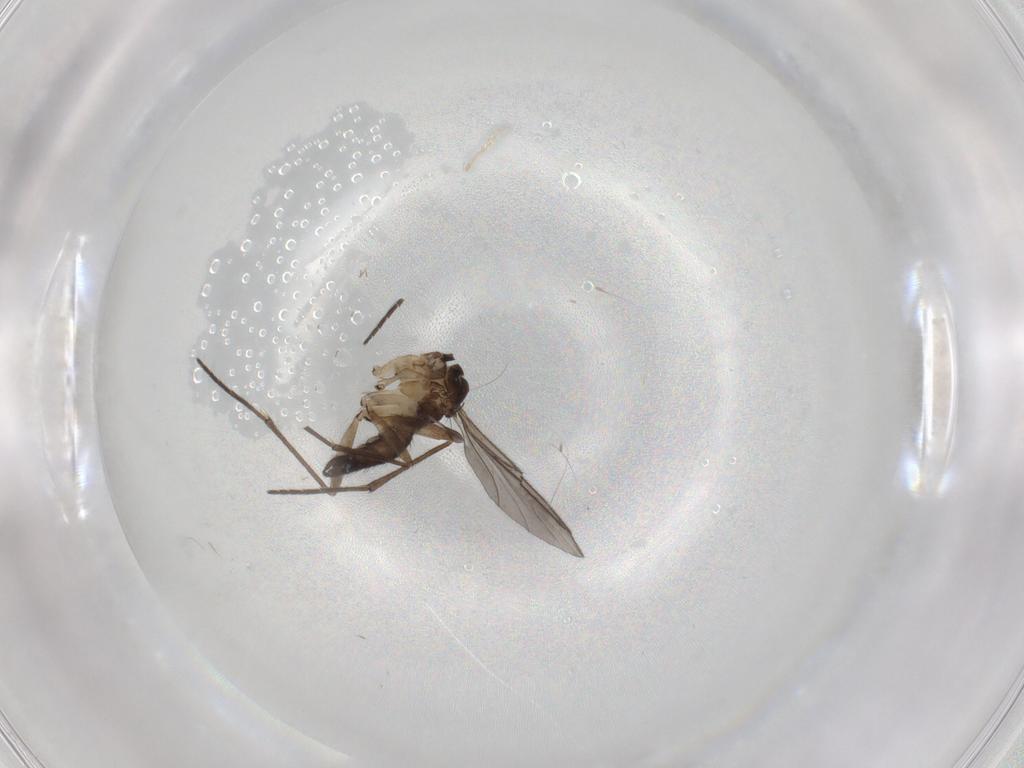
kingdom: Animalia
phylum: Arthropoda
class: Insecta
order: Diptera
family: Sciaridae
